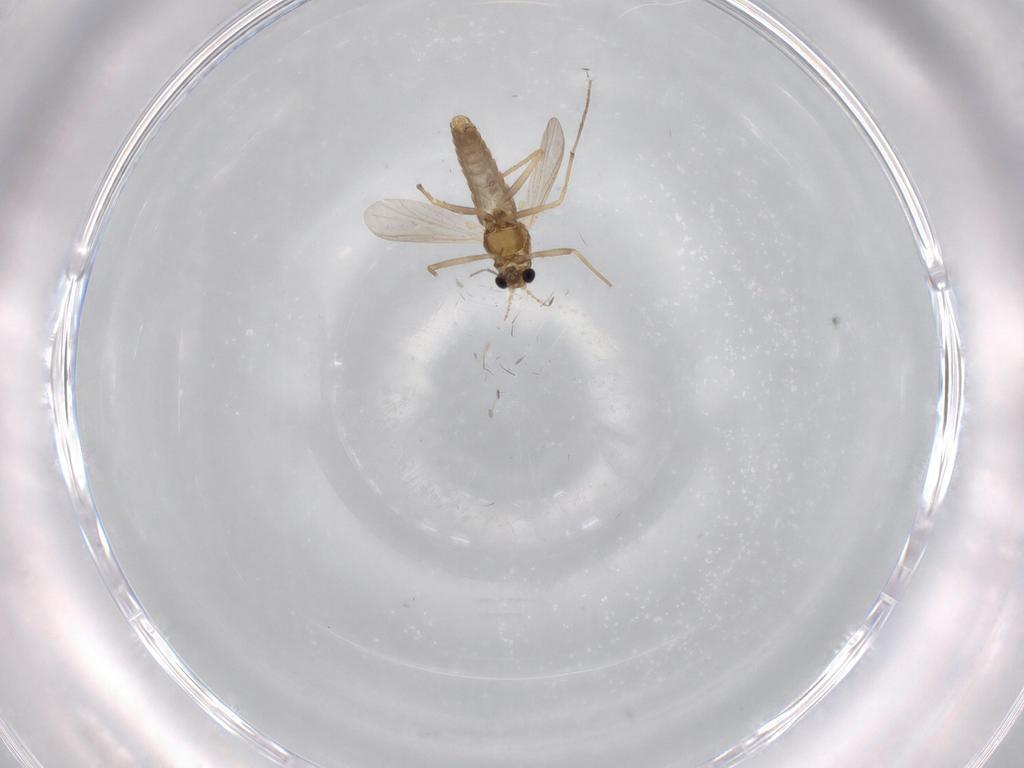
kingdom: Animalia
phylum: Arthropoda
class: Insecta
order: Diptera
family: Chironomidae
